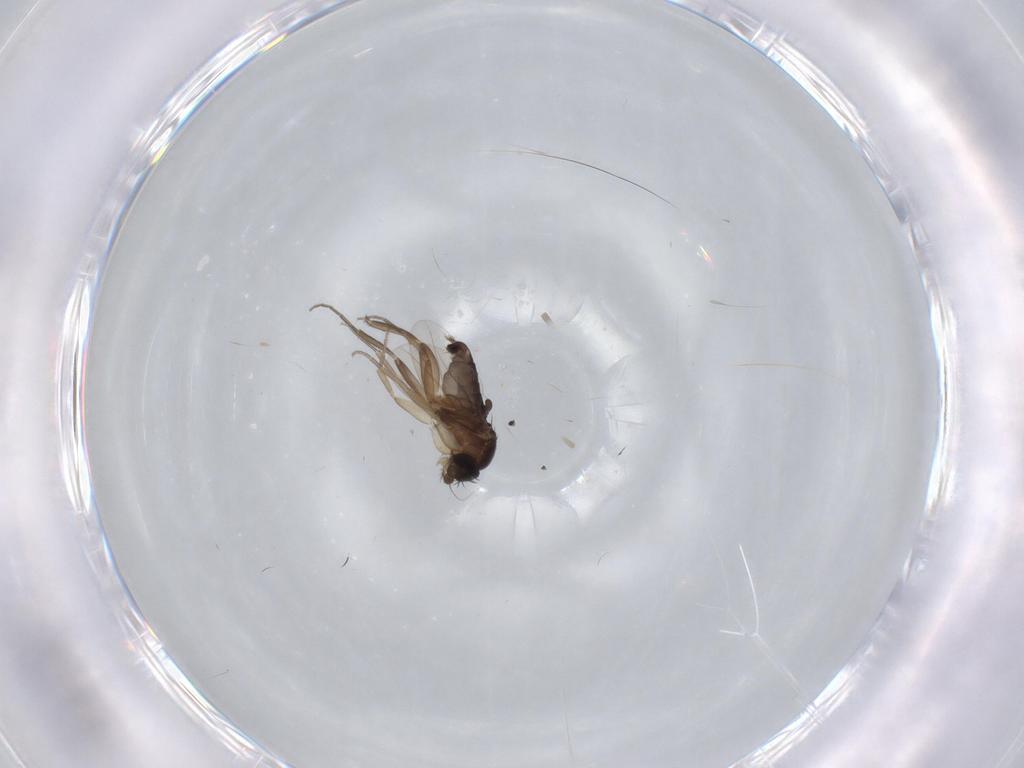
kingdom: Animalia
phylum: Arthropoda
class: Insecta
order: Diptera
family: Phoridae
